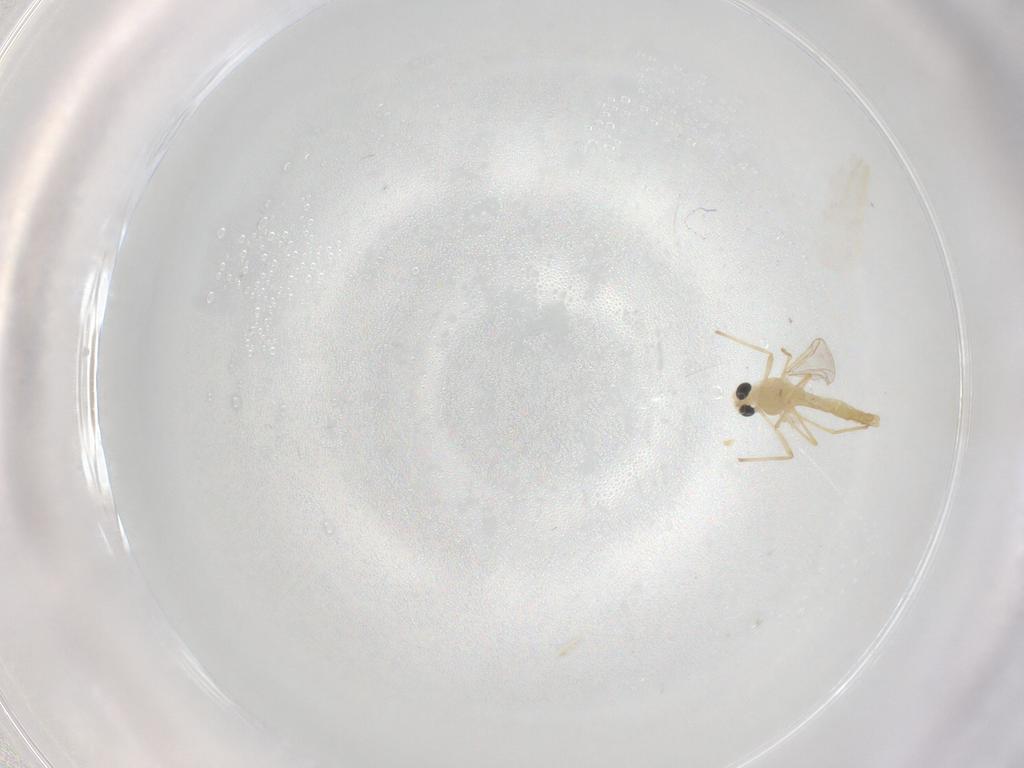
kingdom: Animalia
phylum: Arthropoda
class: Insecta
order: Diptera
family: Chironomidae
